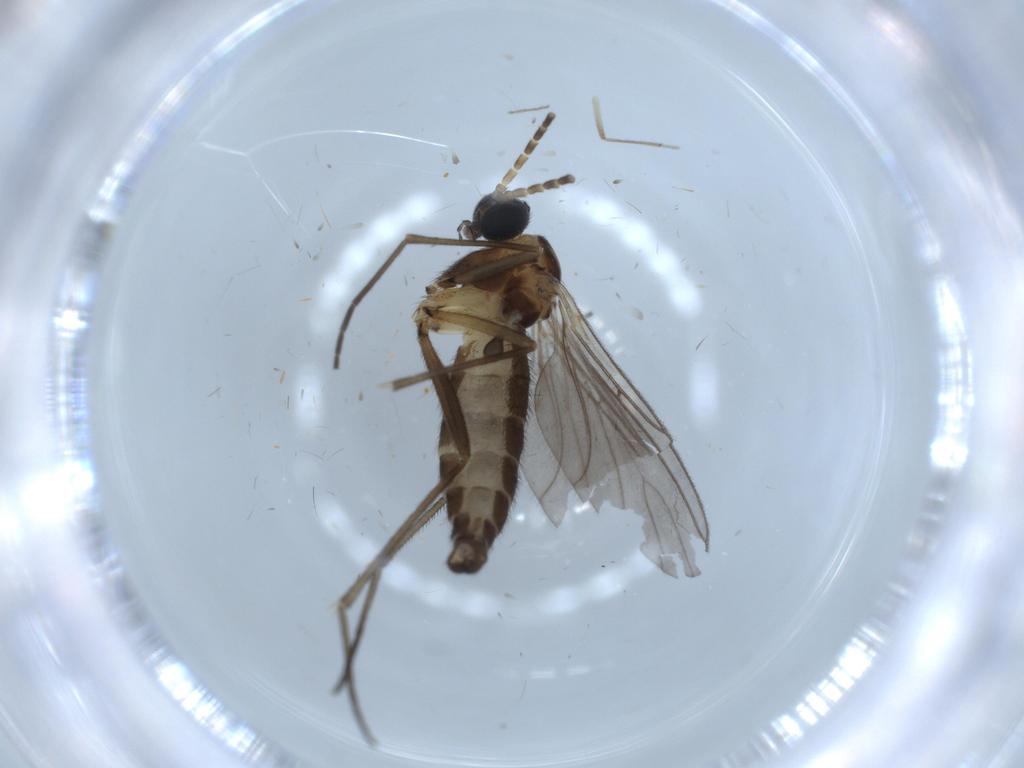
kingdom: Animalia
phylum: Arthropoda
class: Insecta
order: Diptera
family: Sciaridae
